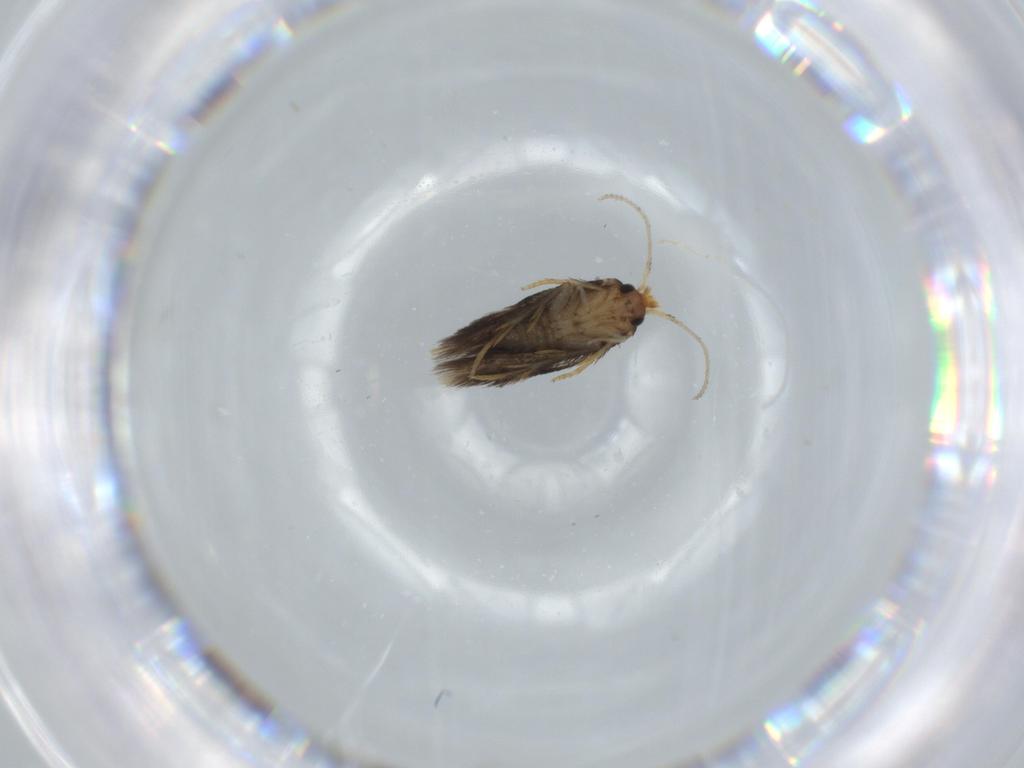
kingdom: Animalia
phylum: Arthropoda
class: Insecta
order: Lepidoptera
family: Nepticulidae
